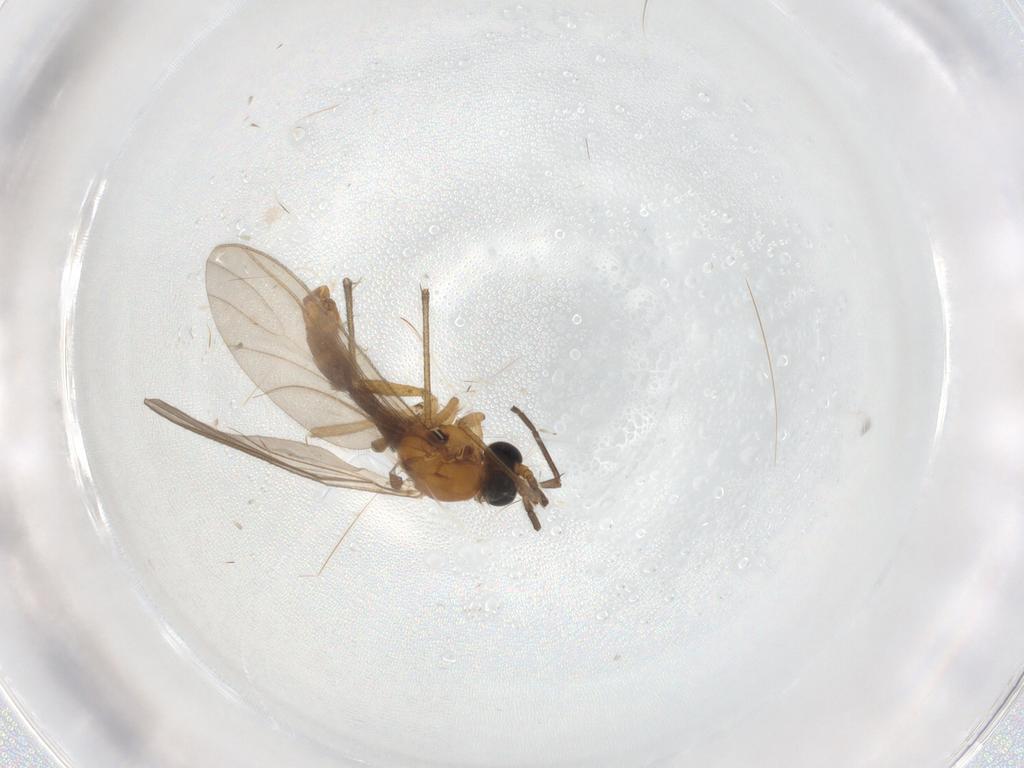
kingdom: Animalia
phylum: Arthropoda
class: Insecta
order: Diptera
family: Sciaridae
